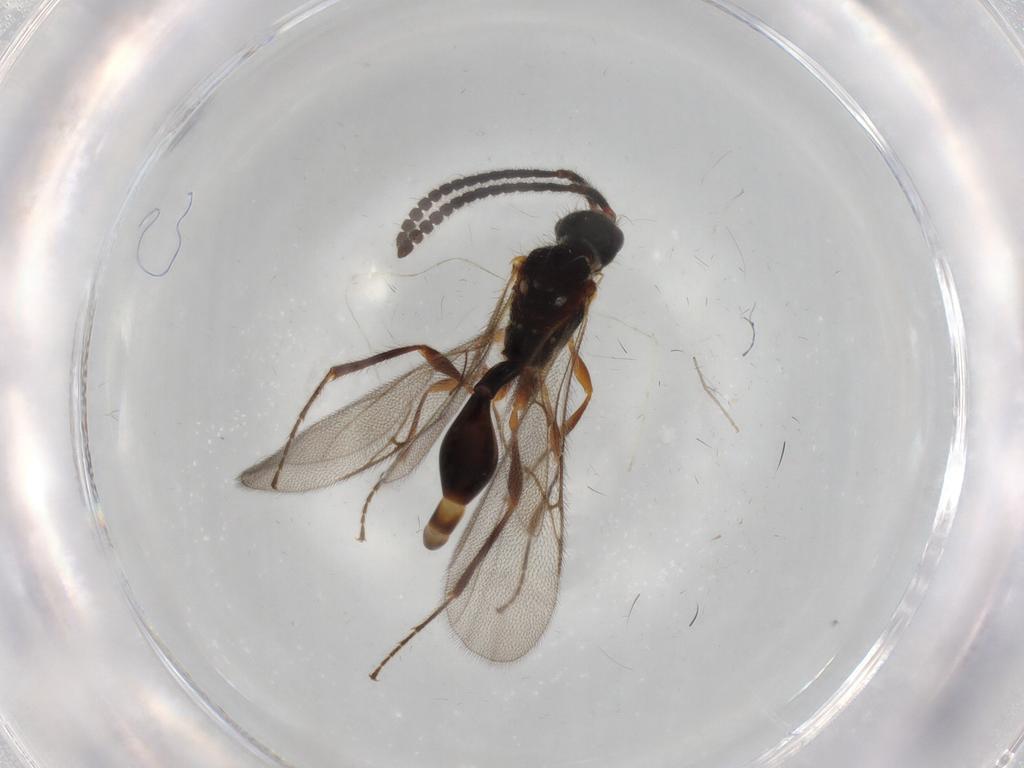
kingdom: Animalia
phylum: Arthropoda
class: Insecta
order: Hymenoptera
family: Diapriidae
